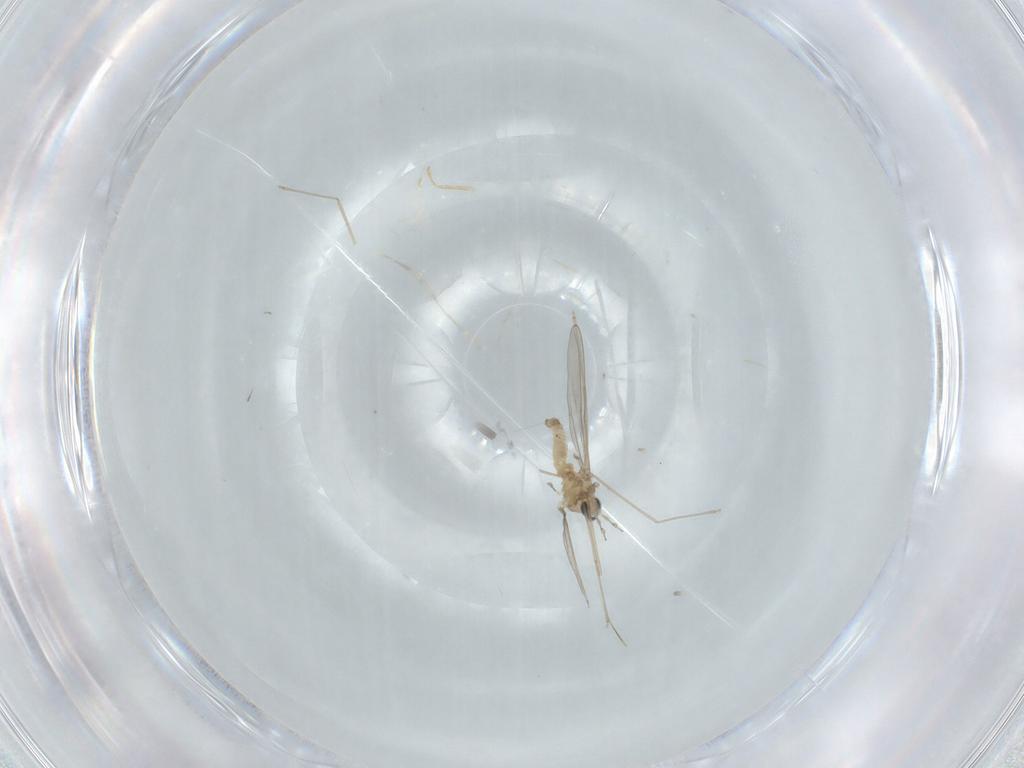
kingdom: Animalia
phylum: Arthropoda
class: Insecta
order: Diptera
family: Cecidomyiidae
